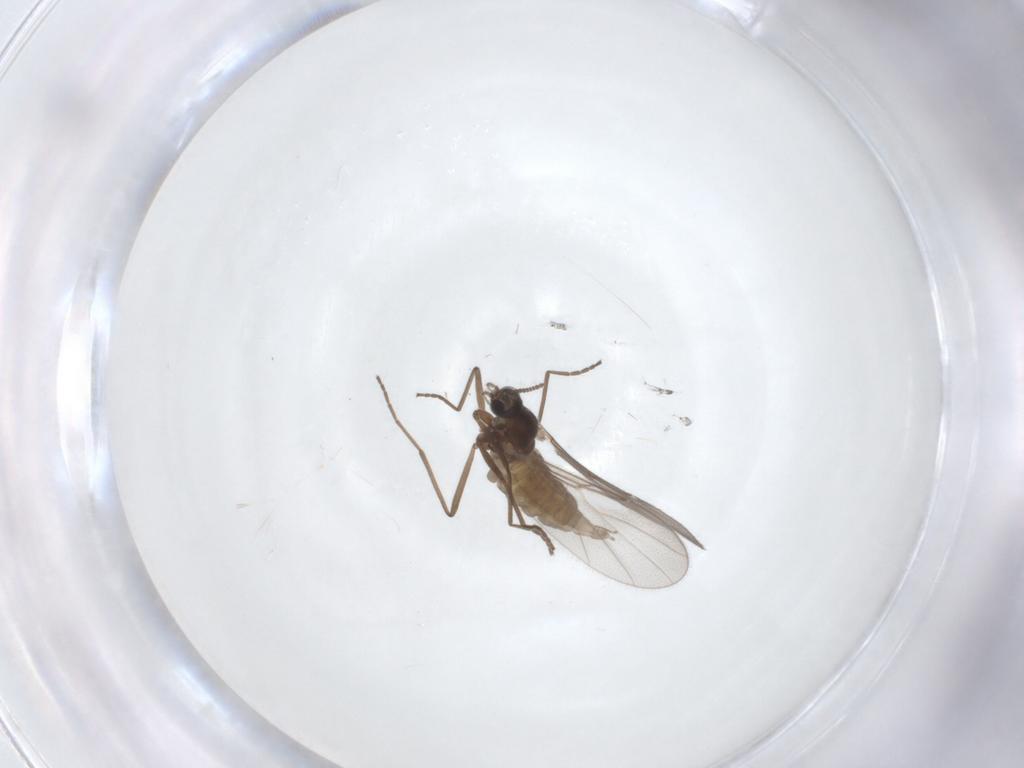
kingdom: Animalia
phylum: Arthropoda
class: Insecta
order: Diptera
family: Cecidomyiidae
